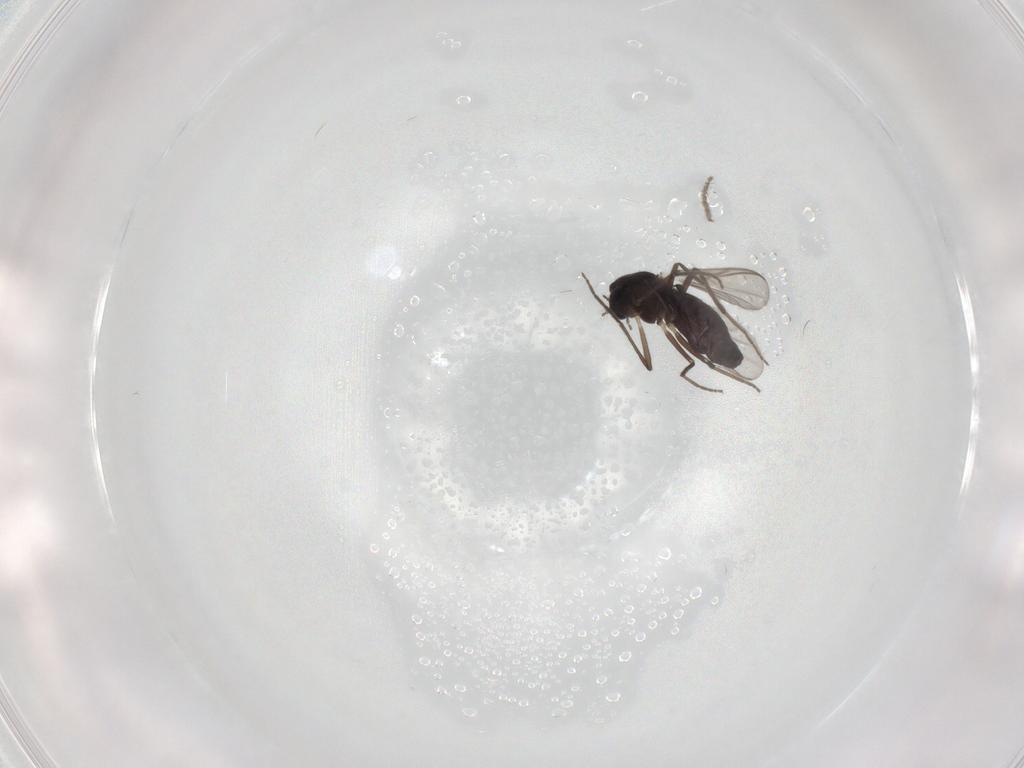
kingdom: Animalia
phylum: Arthropoda
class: Insecta
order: Diptera
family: Chironomidae
